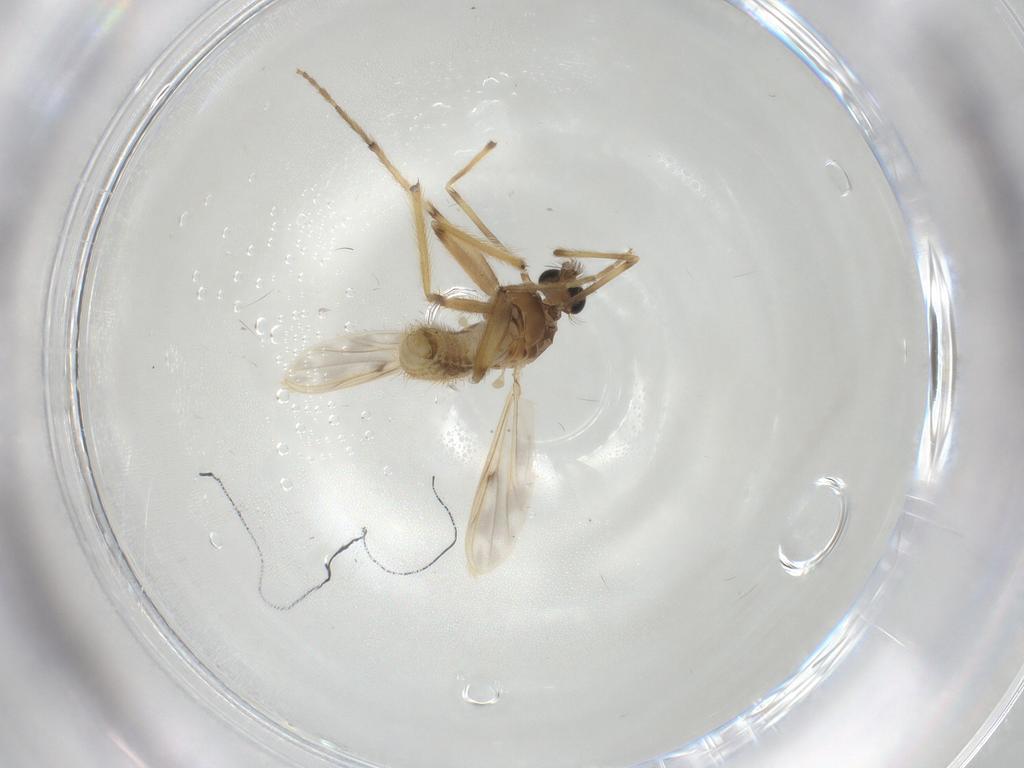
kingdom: Animalia
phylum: Arthropoda
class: Insecta
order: Diptera
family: Chironomidae
